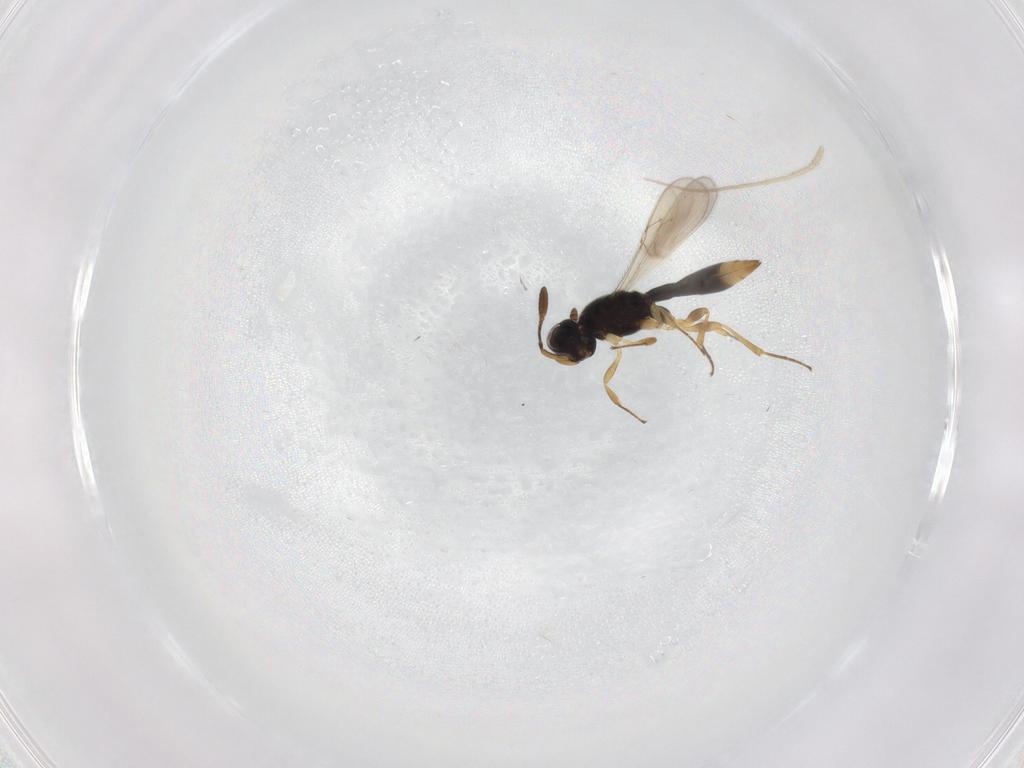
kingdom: Animalia
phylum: Arthropoda
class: Insecta
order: Hymenoptera
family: Scelionidae
